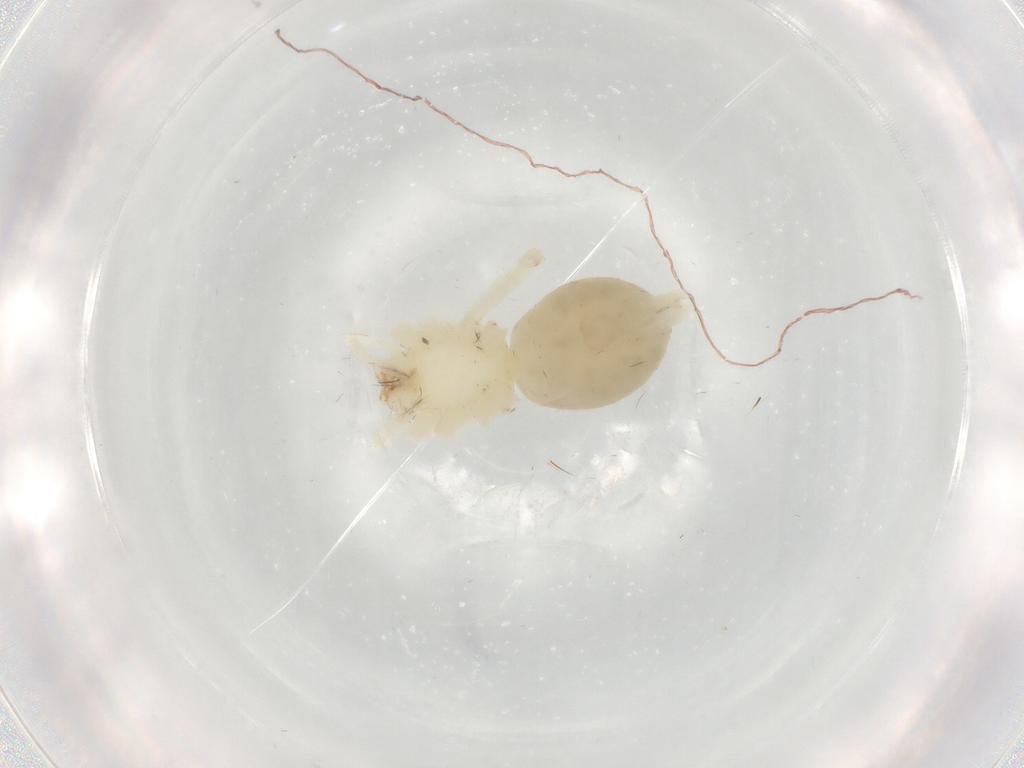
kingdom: Animalia
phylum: Arthropoda
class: Arachnida
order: Araneae
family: Anyphaenidae
